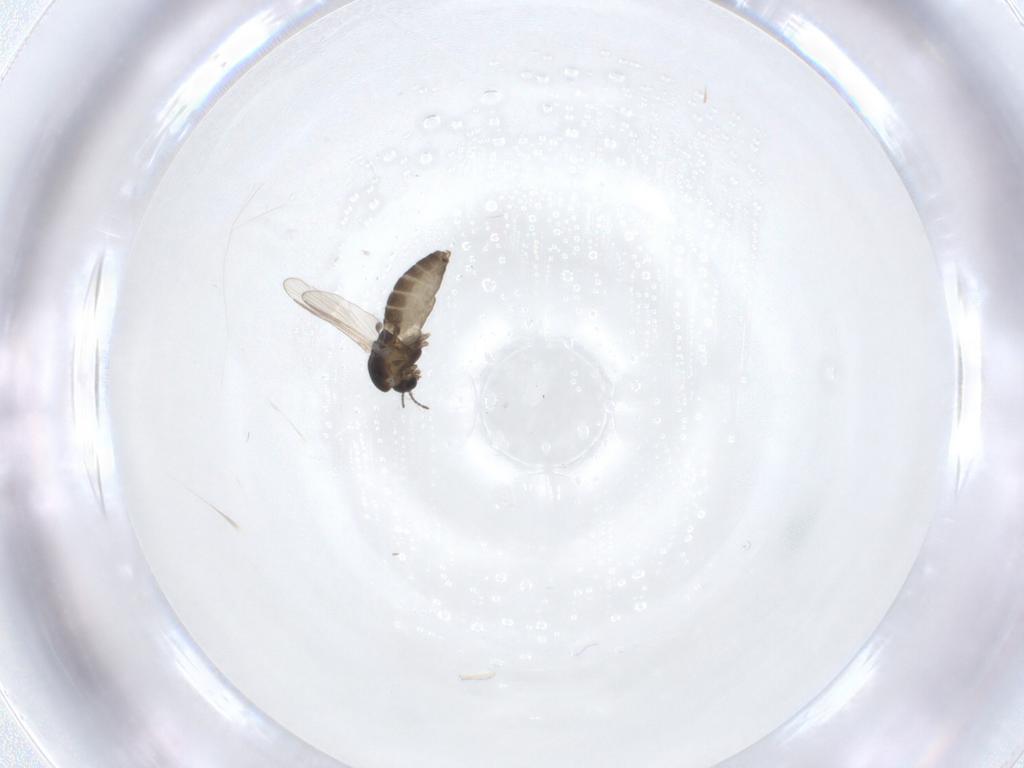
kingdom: Animalia
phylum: Arthropoda
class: Insecta
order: Diptera
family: Chironomidae
